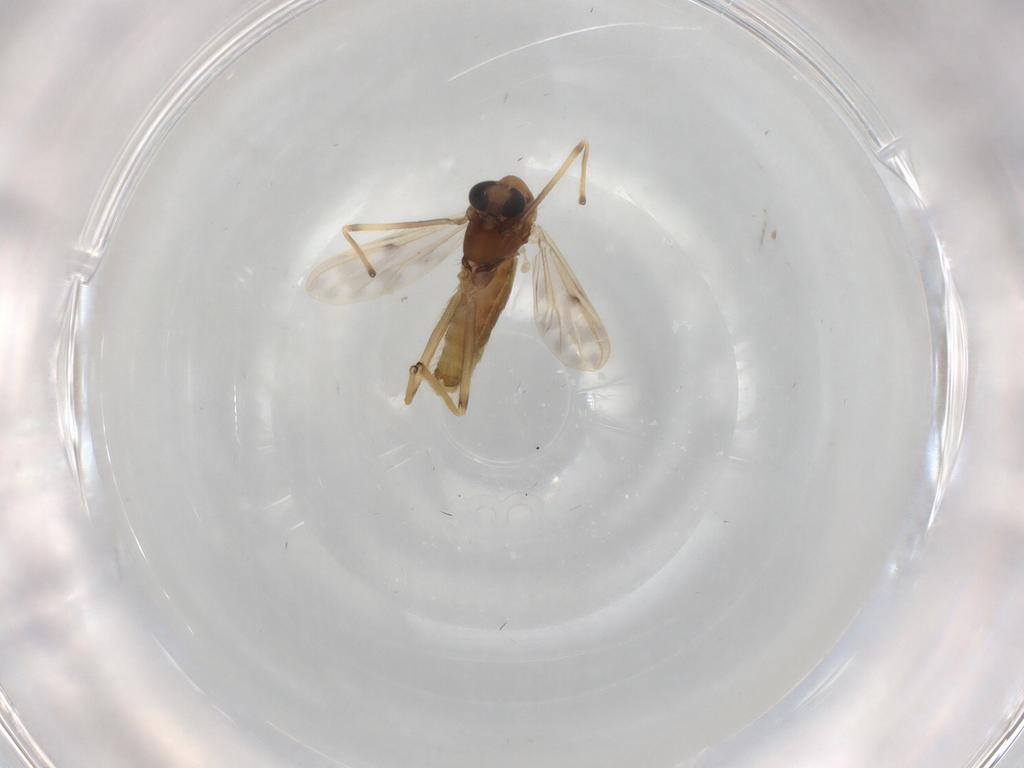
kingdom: Animalia
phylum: Arthropoda
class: Insecta
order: Diptera
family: Chironomidae
